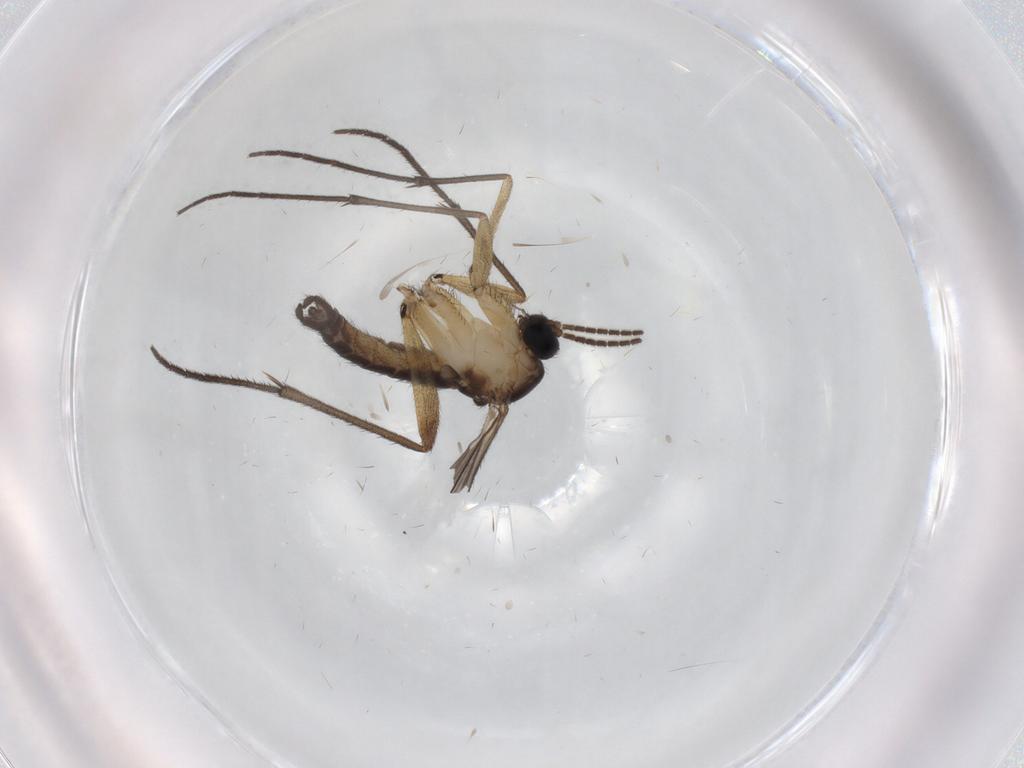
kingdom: Animalia
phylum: Arthropoda
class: Insecta
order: Diptera
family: Sciaridae
